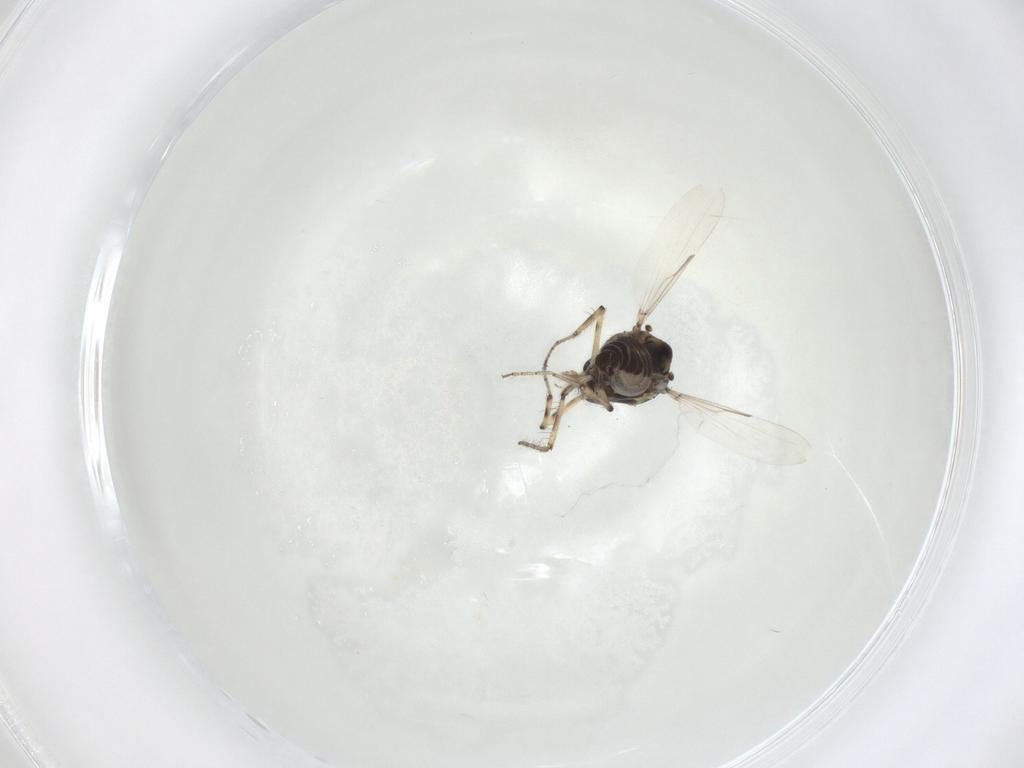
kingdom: Animalia
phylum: Arthropoda
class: Insecta
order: Diptera
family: Ceratopogonidae
